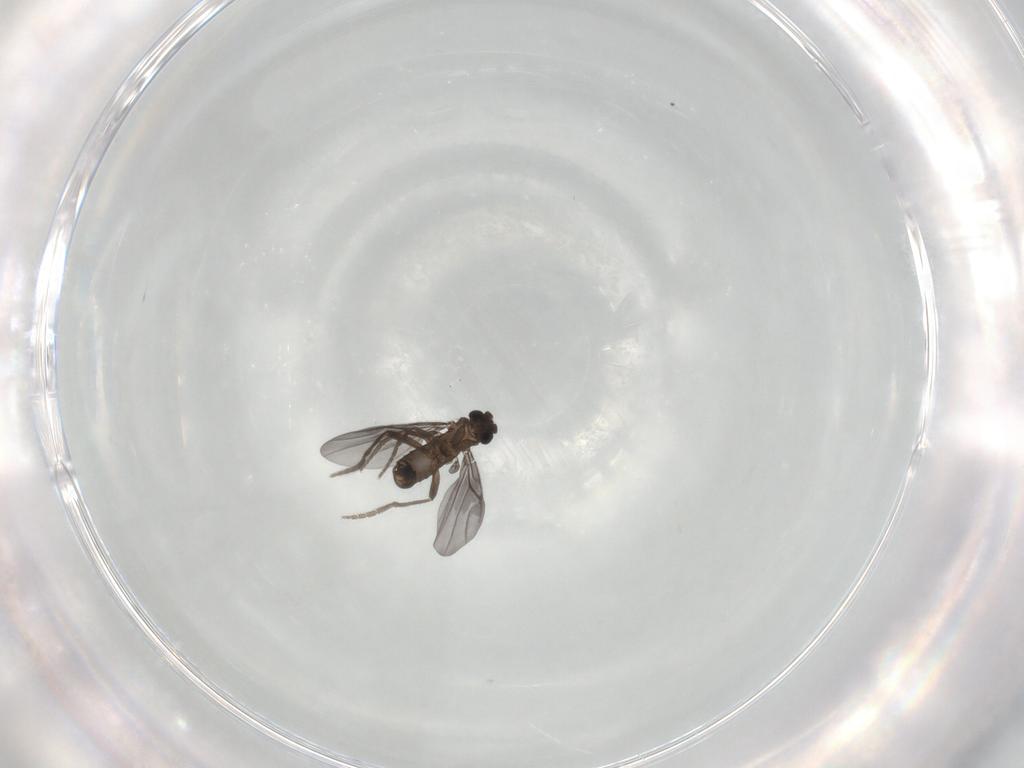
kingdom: Animalia
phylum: Arthropoda
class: Insecta
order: Diptera
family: Phoridae
